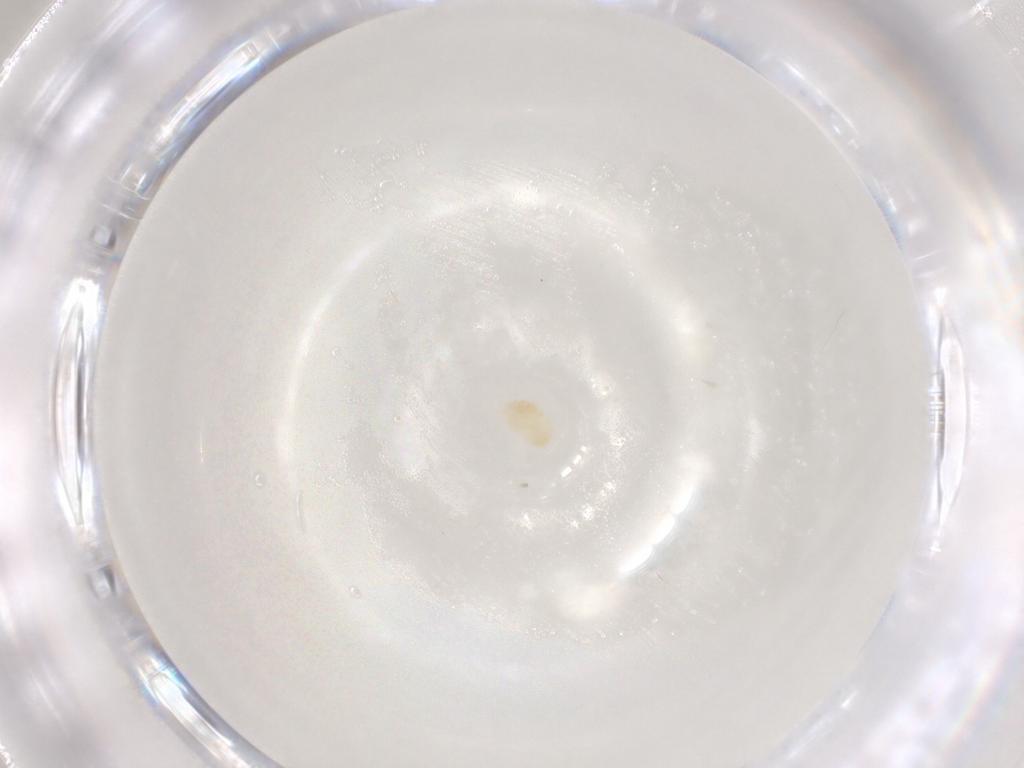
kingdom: Animalia
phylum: Arthropoda
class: Arachnida
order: Trombidiformes
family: Eupodidae
